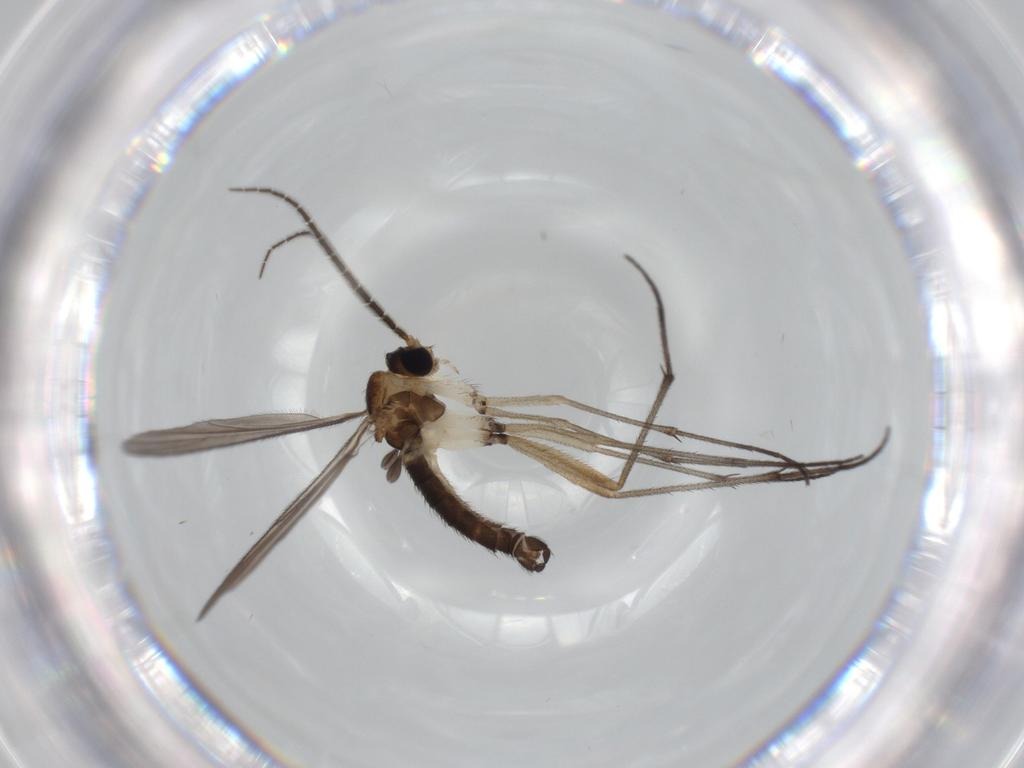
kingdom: Animalia
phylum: Arthropoda
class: Insecta
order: Diptera
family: Sciaridae
